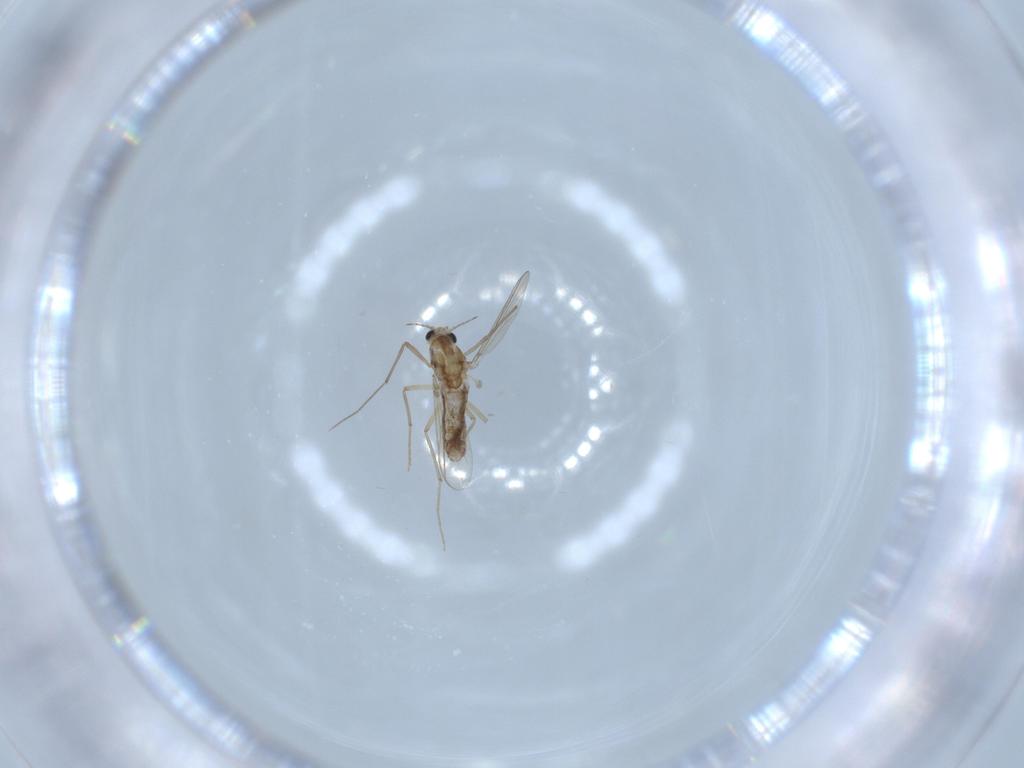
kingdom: Animalia
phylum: Arthropoda
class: Insecta
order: Diptera
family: Chironomidae
